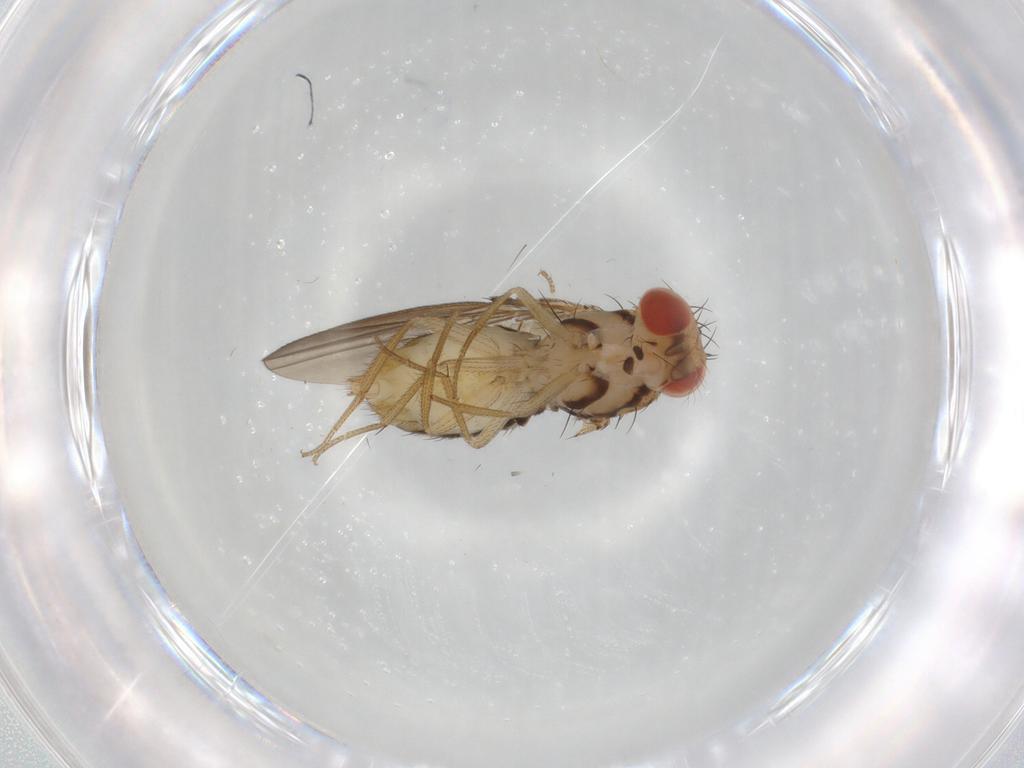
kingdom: Animalia
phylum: Arthropoda
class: Insecta
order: Diptera
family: Drosophilidae
